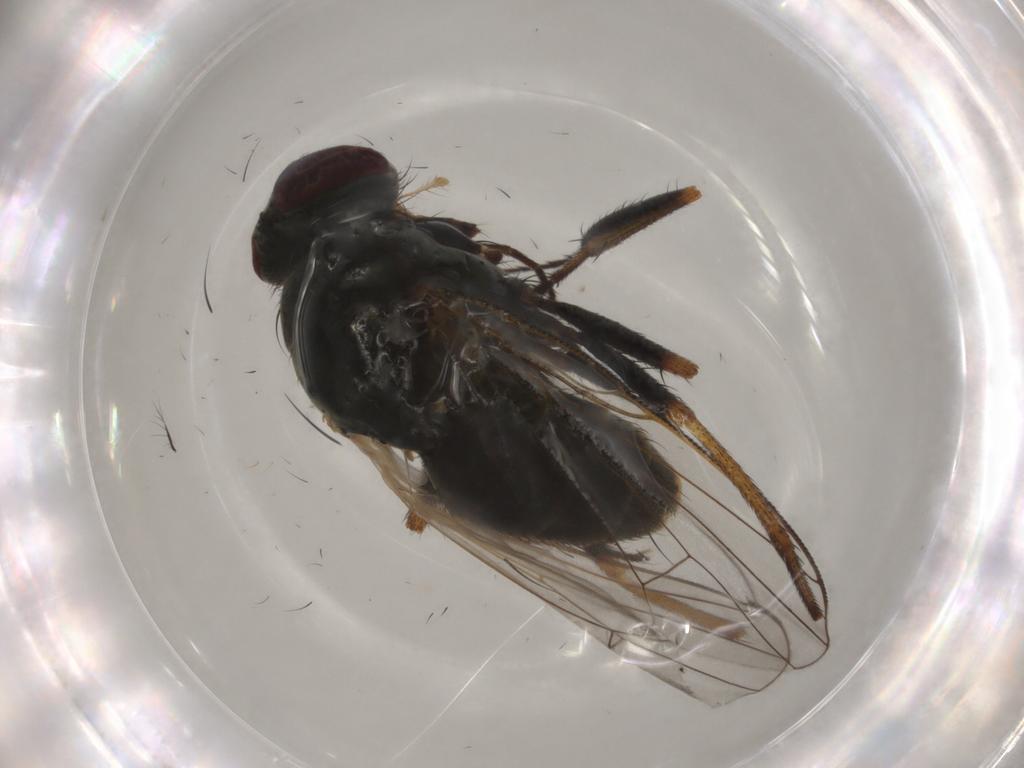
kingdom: Animalia
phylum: Arthropoda
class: Insecta
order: Diptera
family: Muscidae
